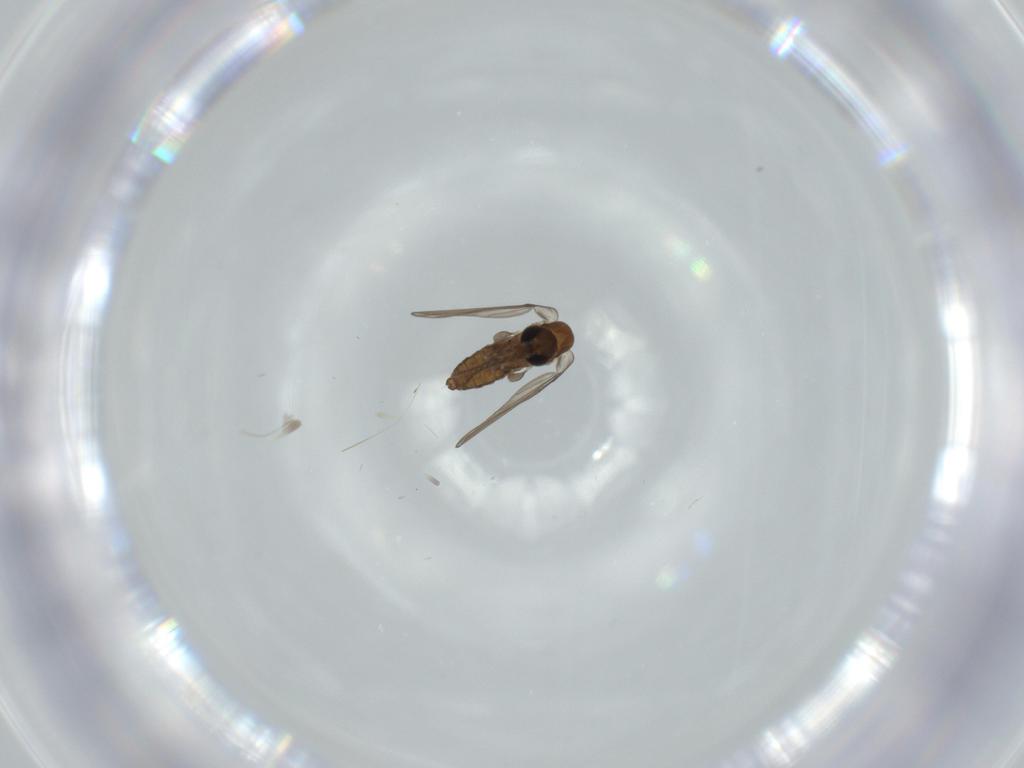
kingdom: Animalia
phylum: Arthropoda
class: Insecta
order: Diptera
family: Psychodidae
